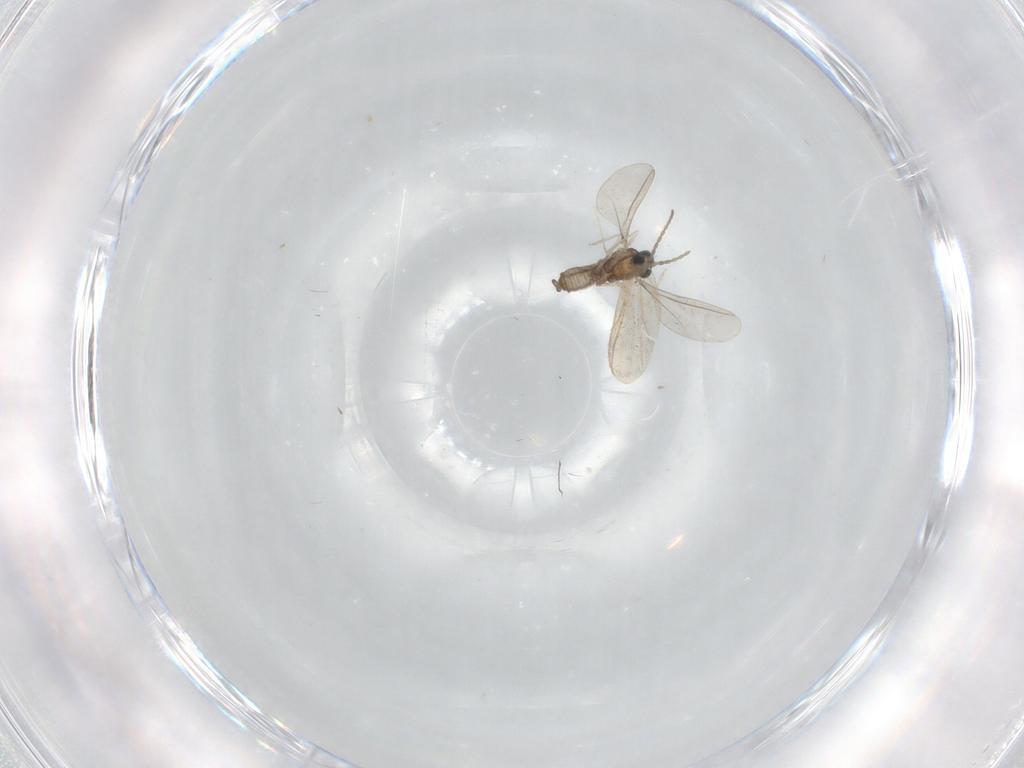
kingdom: Animalia
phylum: Arthropoda
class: Insecta
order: Diptera
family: Cecidomyiidae
